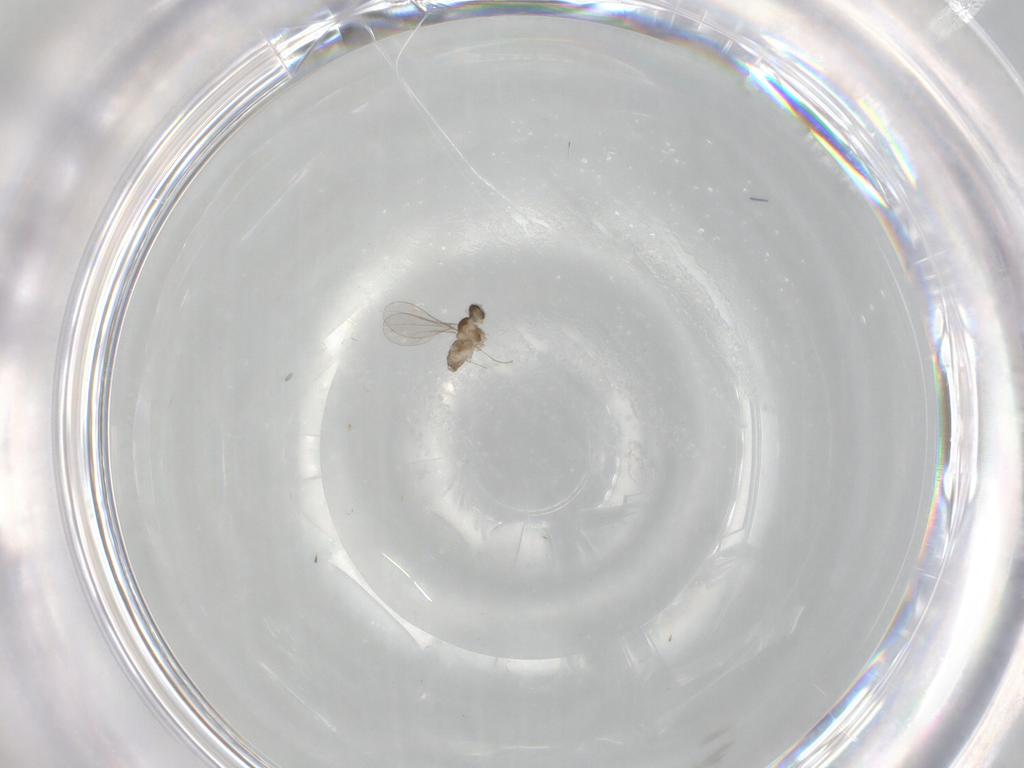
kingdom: Animalia
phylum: Arthropoda
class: Insecta
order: Diptera
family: Cecidomyiidae
